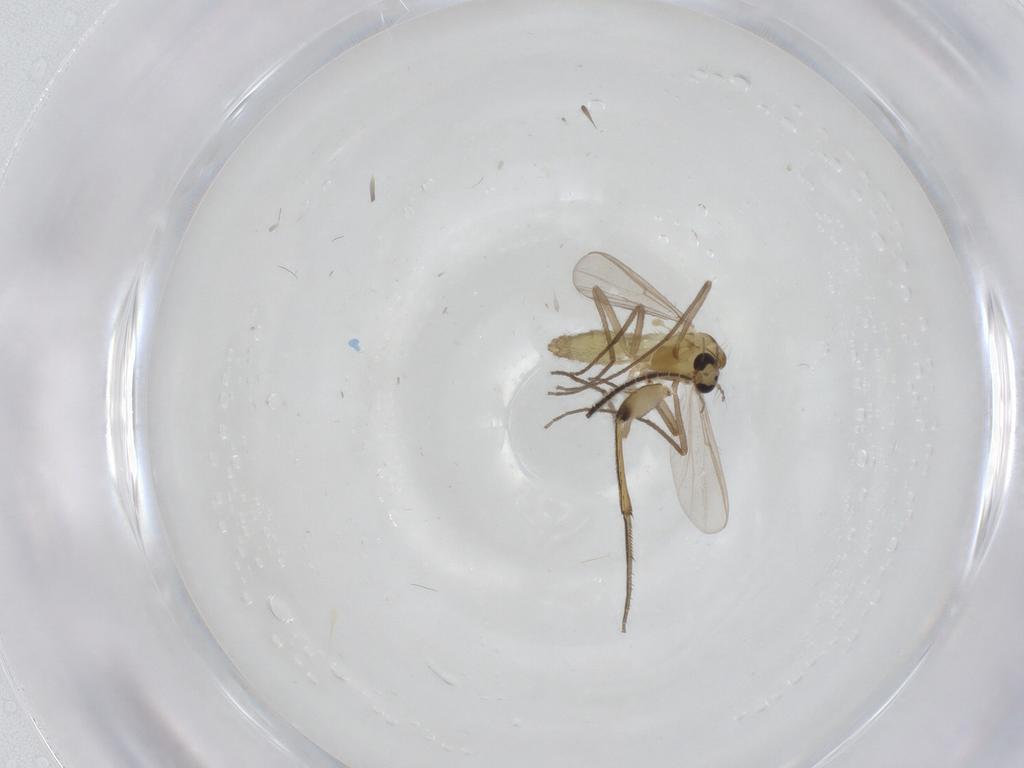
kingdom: Animalia
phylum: Arthropoda
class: Insecta
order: Diptera
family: Chironomidae
